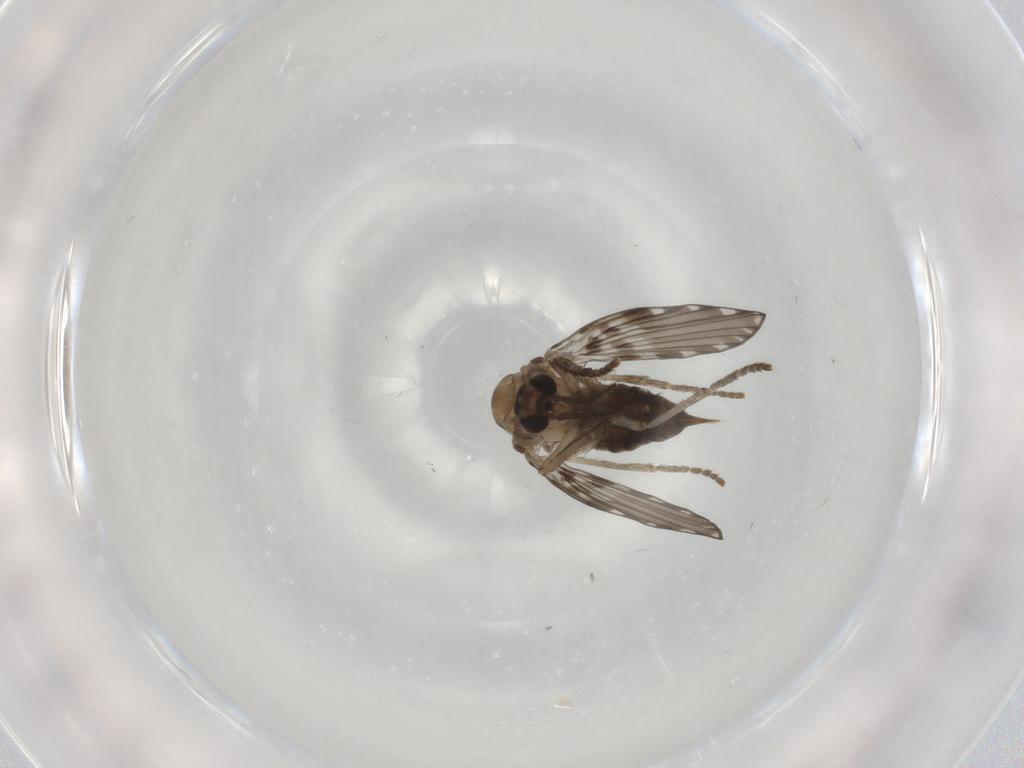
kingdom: Animalia
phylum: Arthropoda
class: Insecta
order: Diptera
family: Psychodidae
